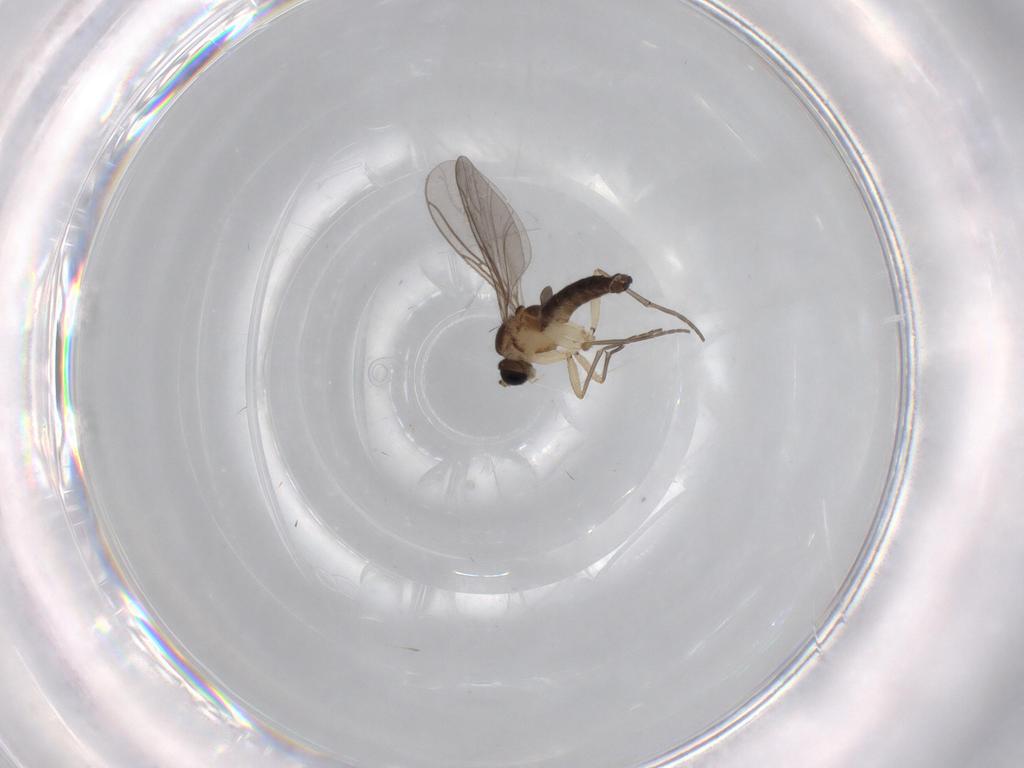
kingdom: Animalia
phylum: Arthropoda
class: Insecta
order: Diptera
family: Sciaridae
